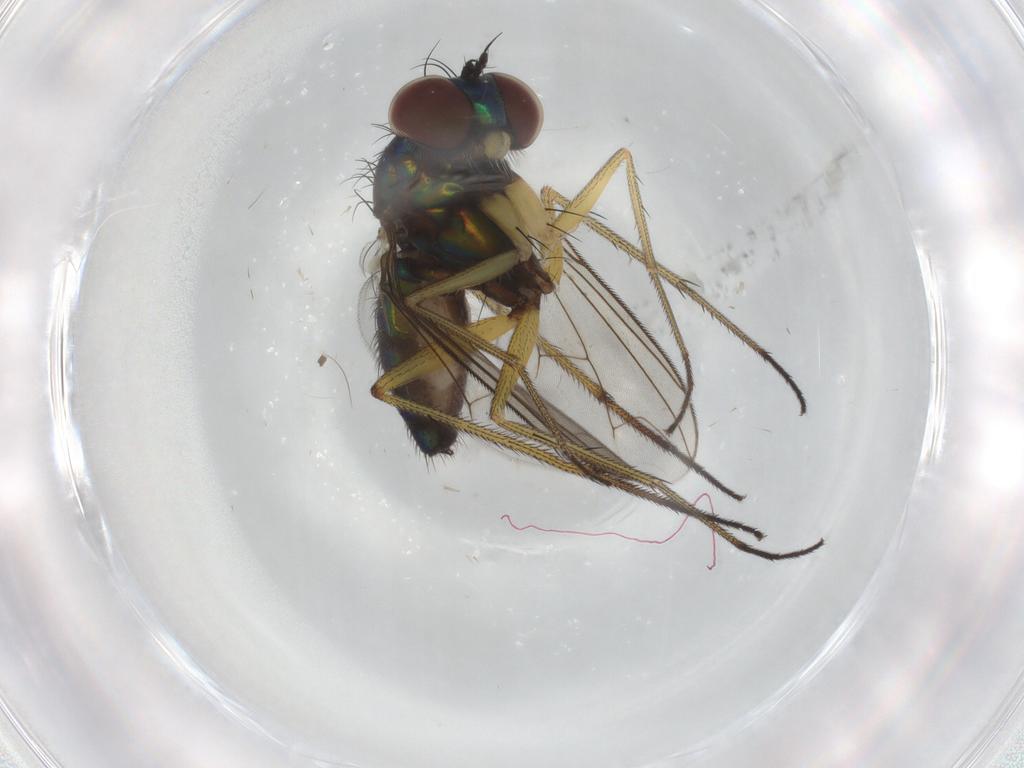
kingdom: Animalia
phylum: Arthropoda
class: Insecta
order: Diptera
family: Dolichopodidae
